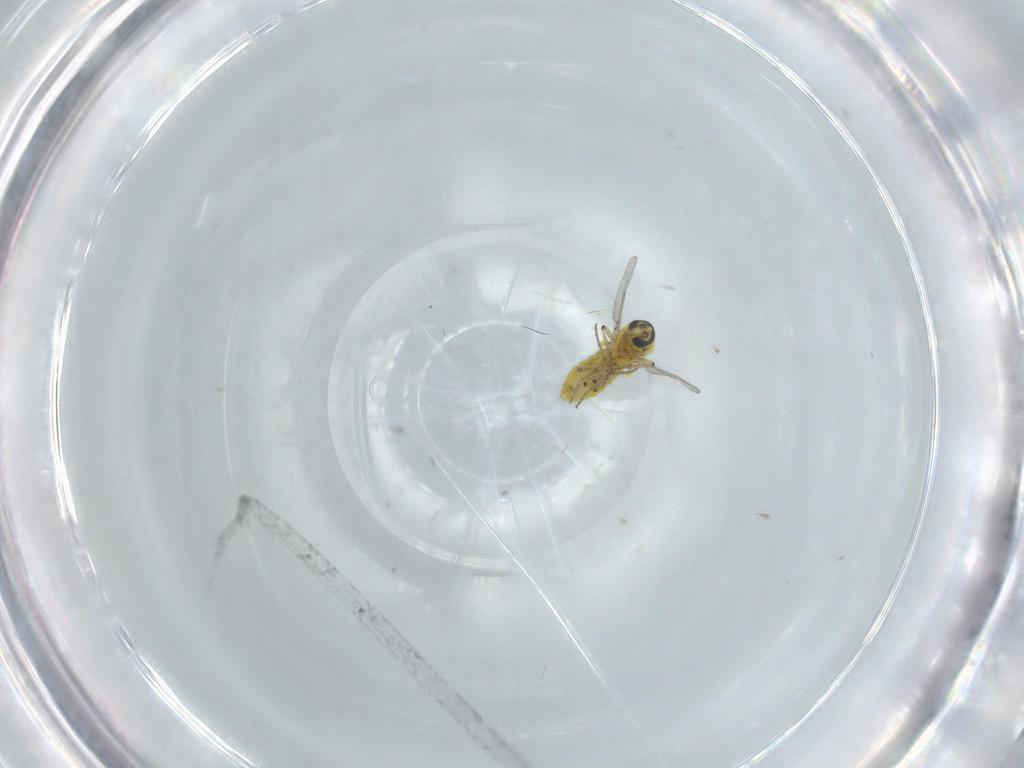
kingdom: Animalia
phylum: Arthropoda
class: Insecta
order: Diptera
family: Ceratopogonidae
